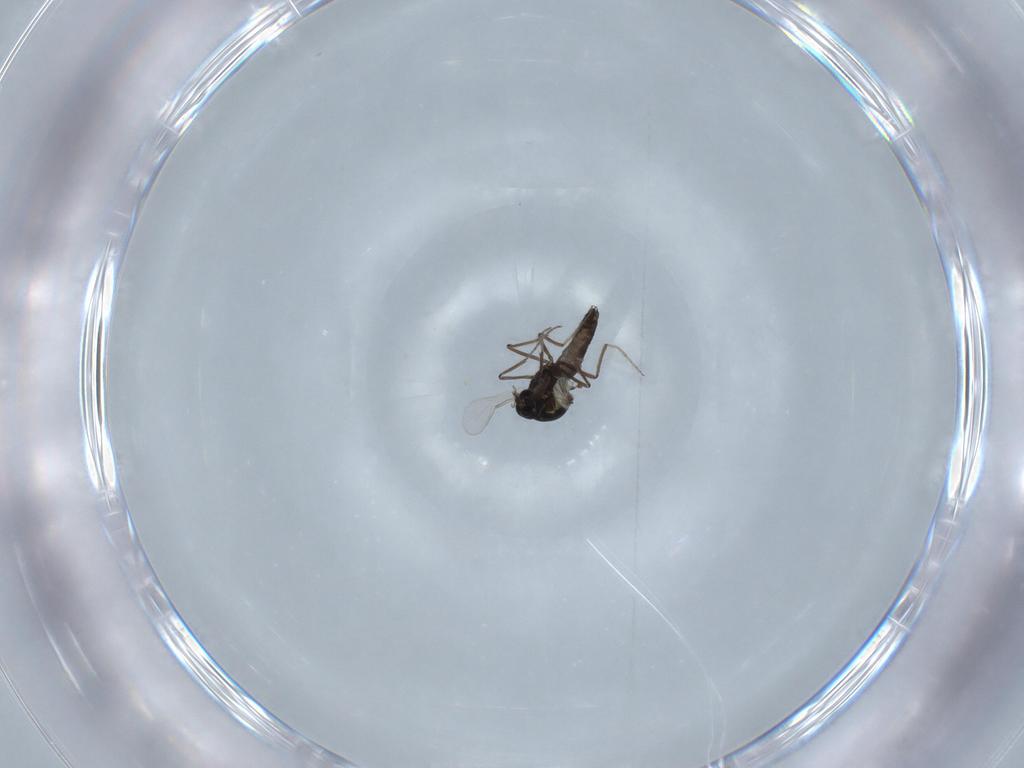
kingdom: Animalia
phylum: Arthropoda
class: Insecta
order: Diptera
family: Ceratopogonidae
